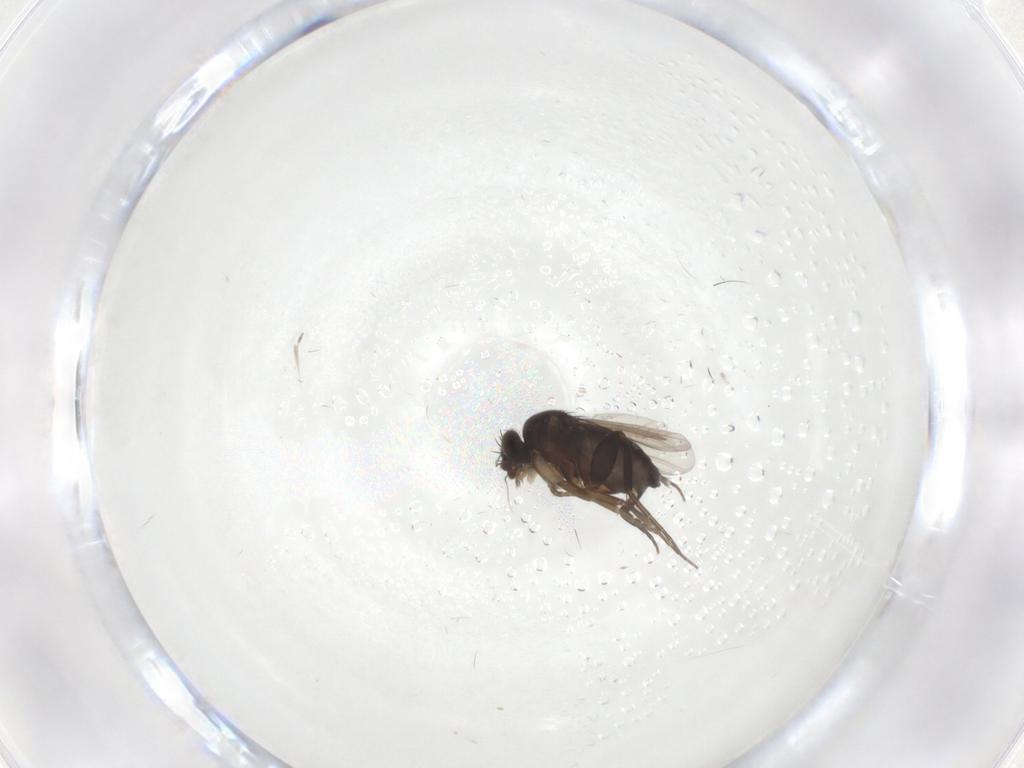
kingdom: Animalia
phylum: Arthropoda
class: Insecta
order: Diptera
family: Phoridae
